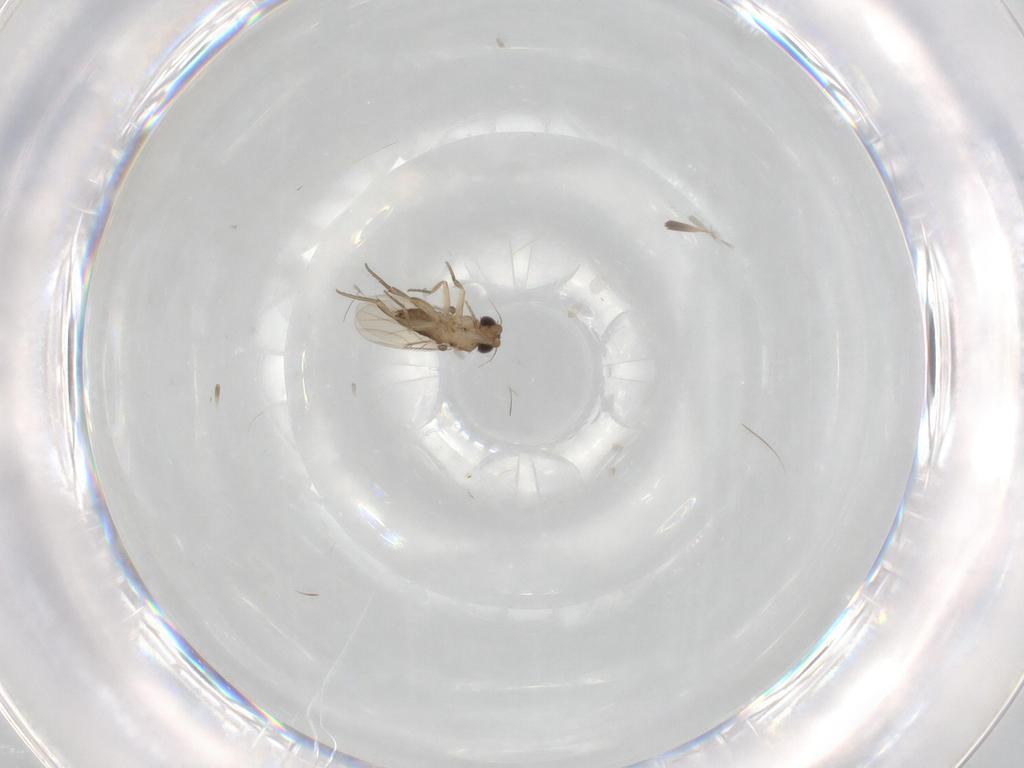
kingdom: Animalia
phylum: Arthropoda
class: Insecta
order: Diptera
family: Phoridae
